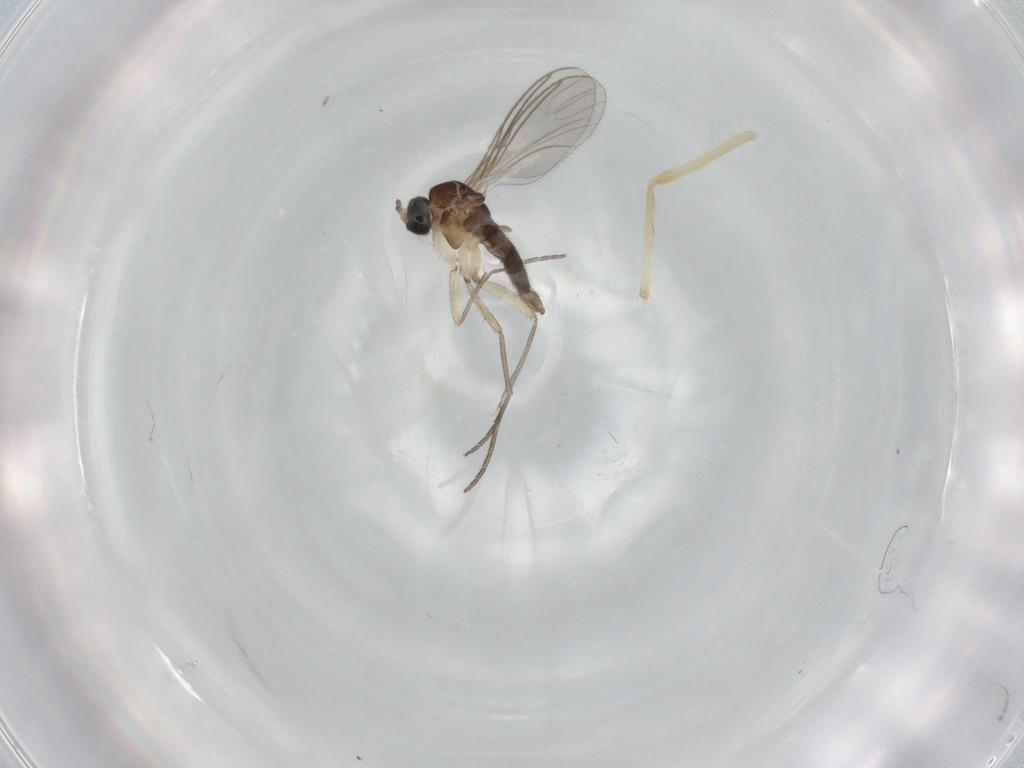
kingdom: Animalia
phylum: Arthropoda
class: Insecta
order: Diptera
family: Chironomidae
